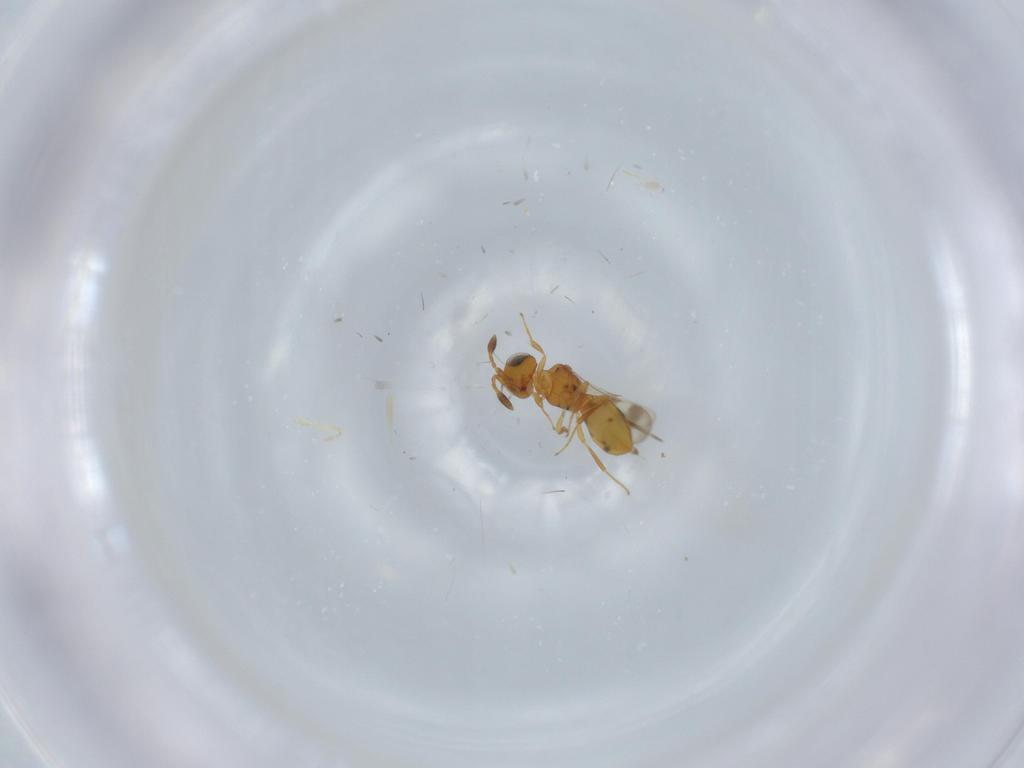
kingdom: Animalia
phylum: Arthropoda
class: Insecta
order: Hymenoptera
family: Scelionidae
